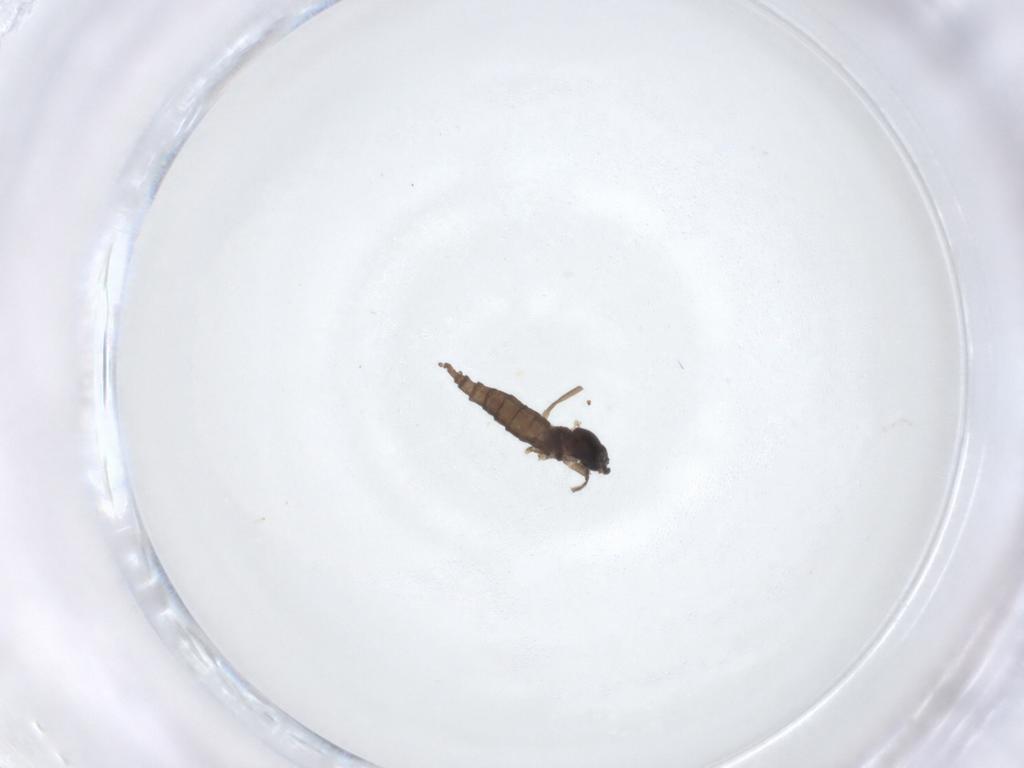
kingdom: Animalia
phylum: Arthropoda
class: Insecta
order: Diptera
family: Cecidomyiidae
